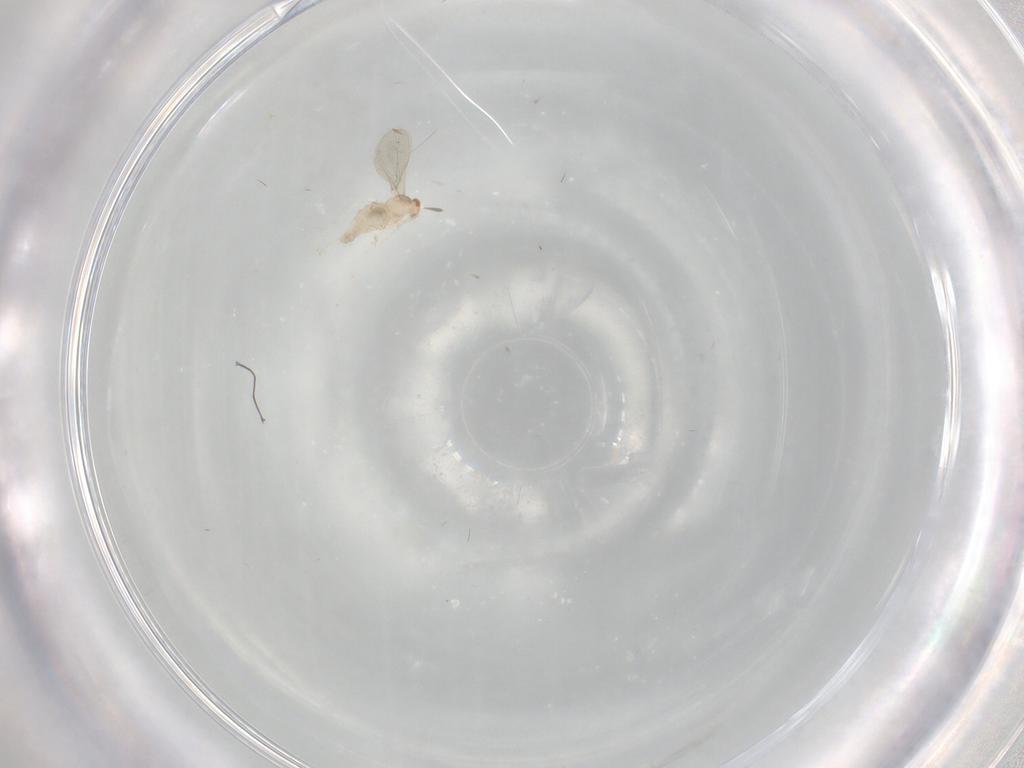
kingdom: Animalia
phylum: Arthropoda
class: Insecta
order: Diptera
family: Cecidomyiidae
